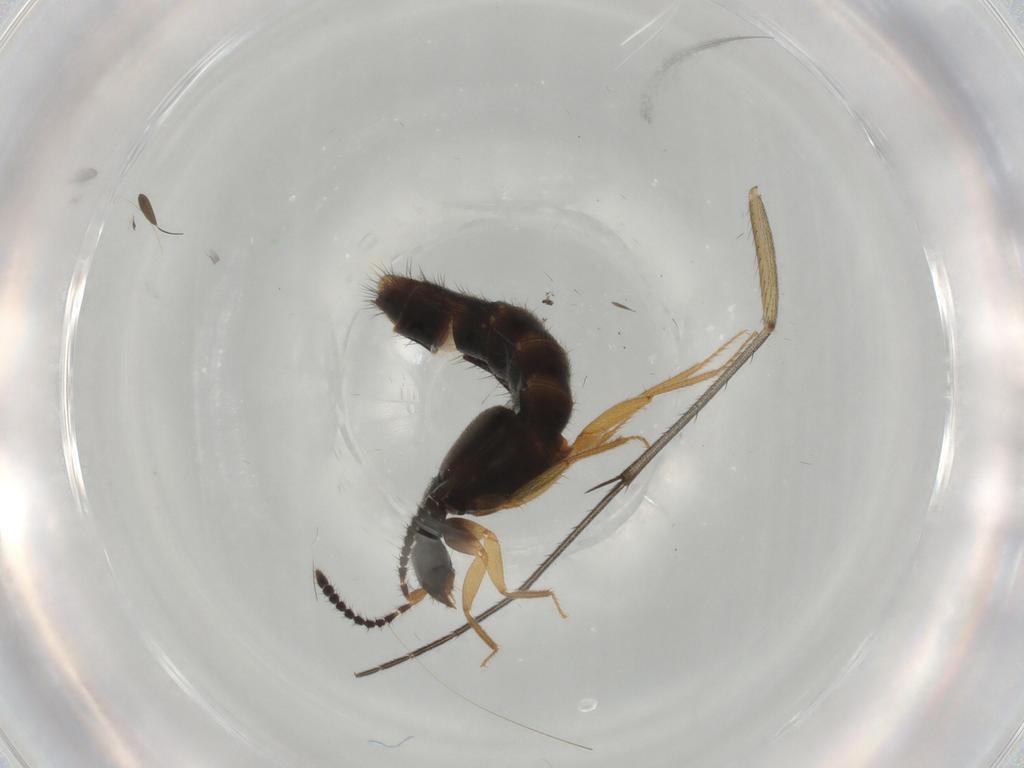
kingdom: Animalia
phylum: Arthropoda
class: Insecta
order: Coleoptera
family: Staphylinidae
